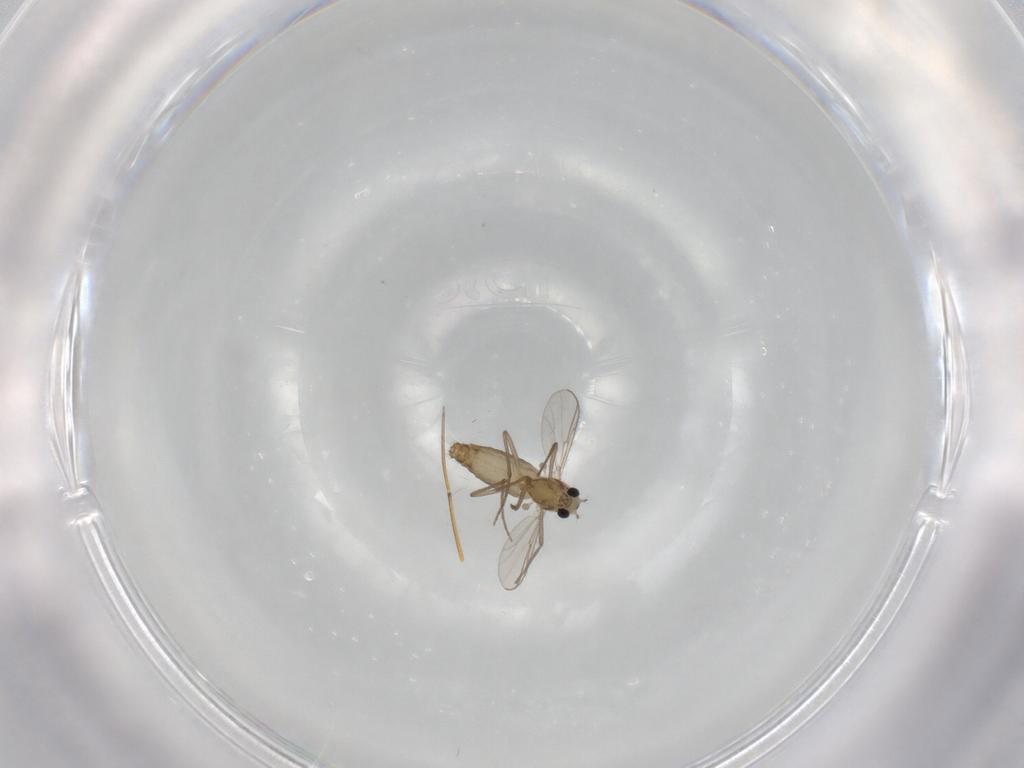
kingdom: Animalia
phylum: Arthropoda
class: Insecta
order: Diptera
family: Chironomidae
